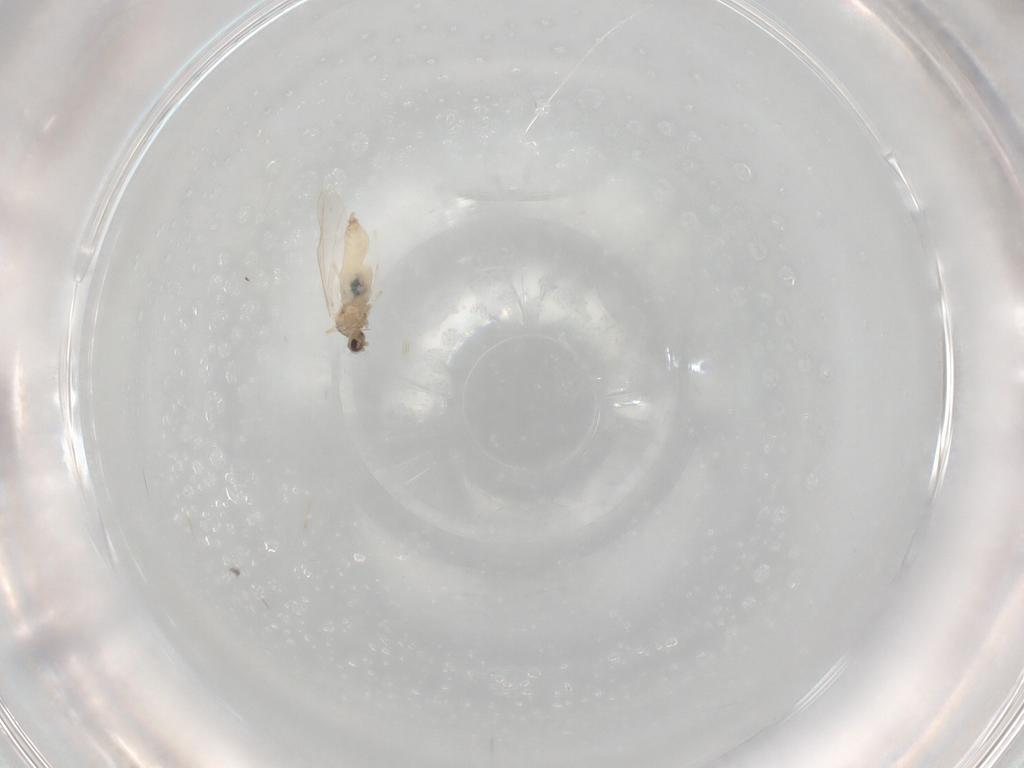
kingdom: Animalia
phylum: Arthropoda
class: Insecta
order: Diptera
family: Cecidomyiidae
